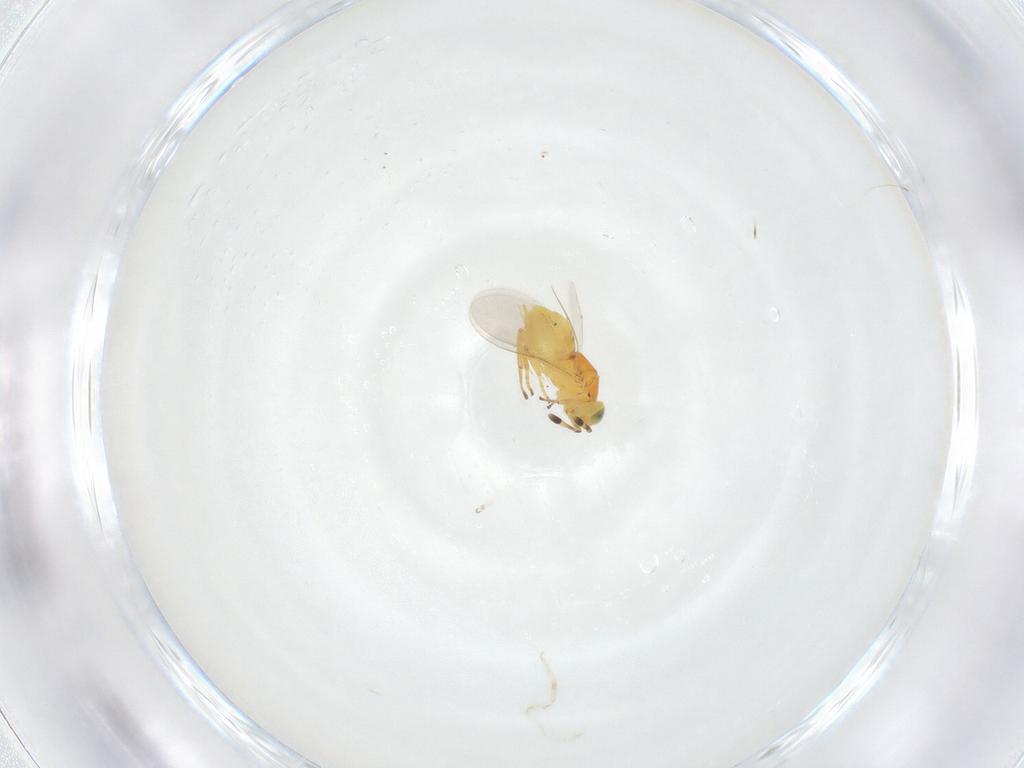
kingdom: Animalia
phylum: Arthropoda
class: Insecta
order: Hymenoptera
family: Encyrtidae
